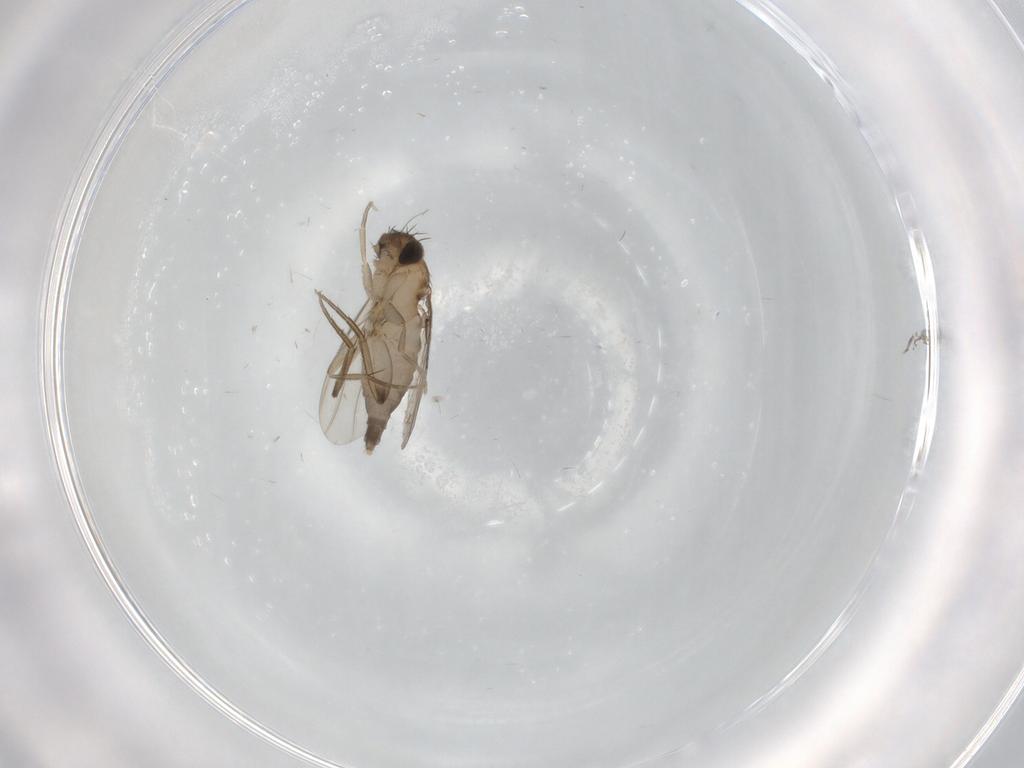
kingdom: Animalia
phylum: Arthropoda
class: Insecta
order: Diptera
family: Phoridae
